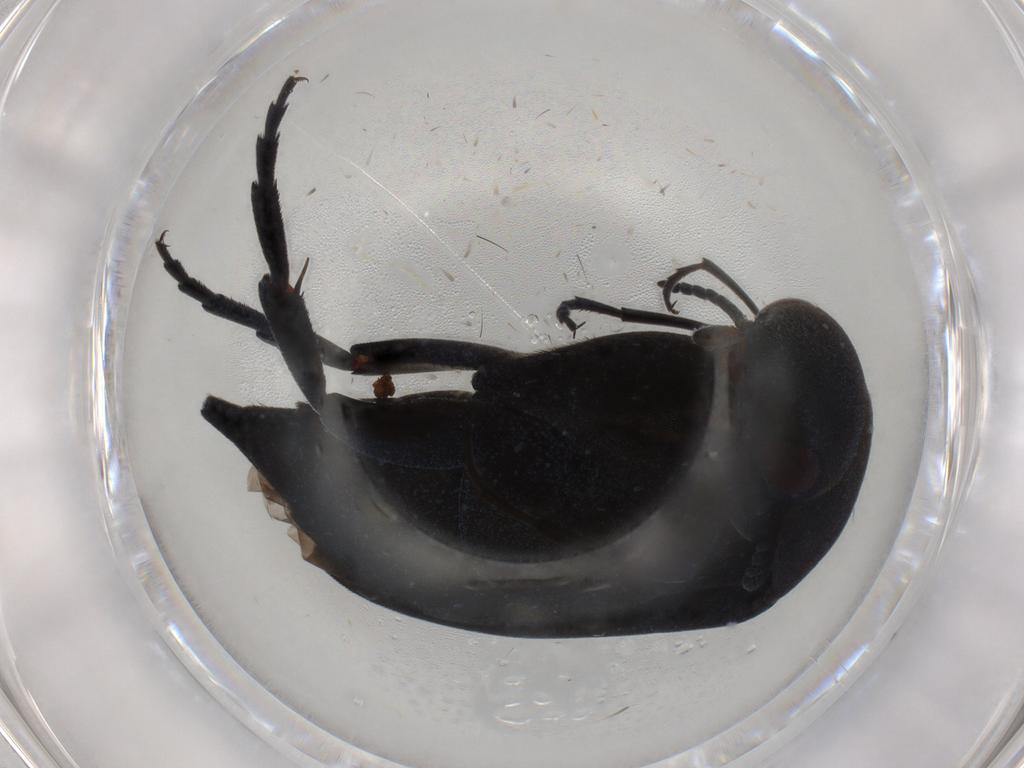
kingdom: Animalia
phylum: Arthropoda
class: Insecta
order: Coleoptera
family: Mordellidae
